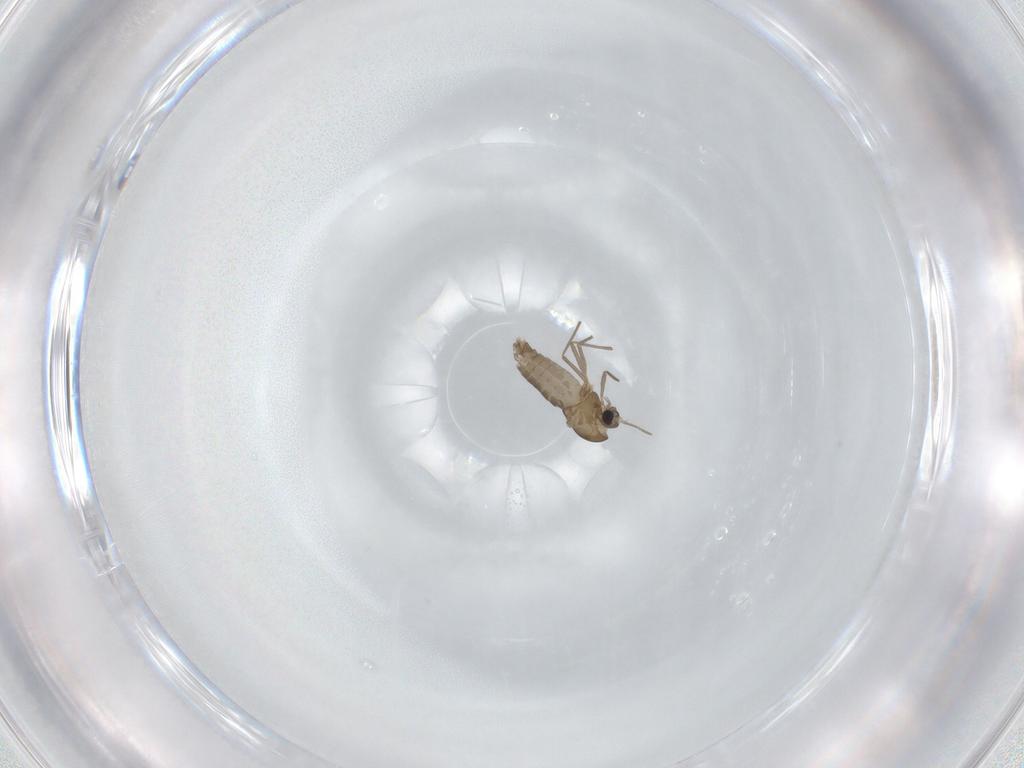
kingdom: Animalia
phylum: Arthropoda
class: Insecta
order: Diptera
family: Chironomidae
